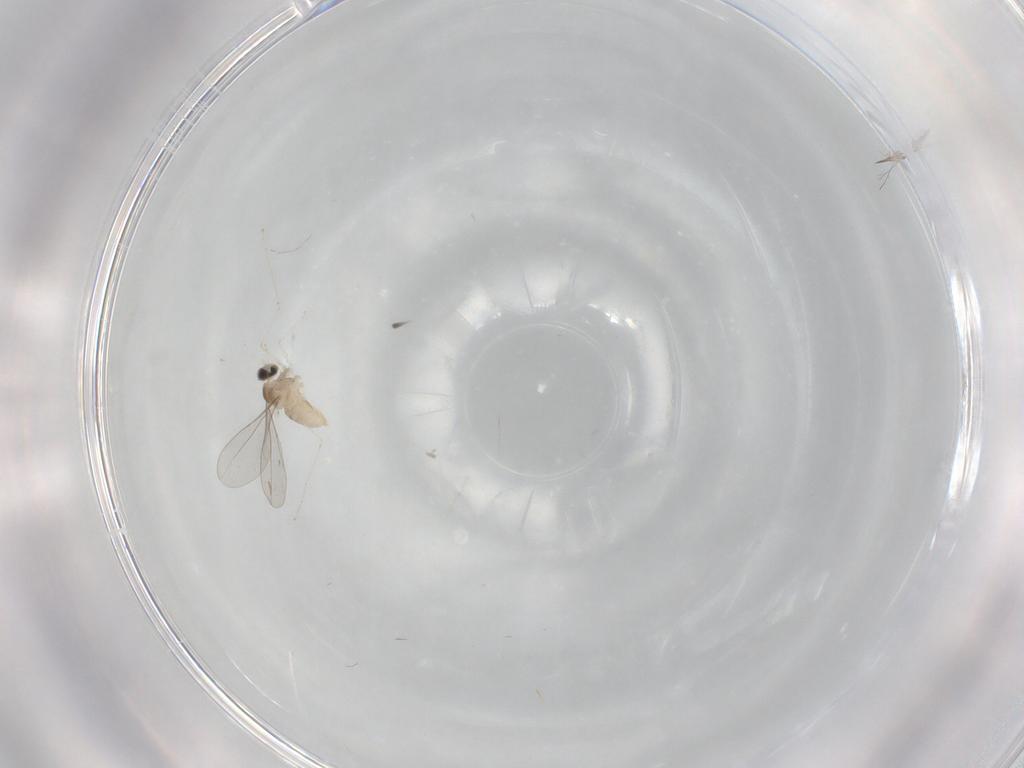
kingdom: Animalia
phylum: Arthropoda
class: Insecta
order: Diptera
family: Cecidomyiidae
